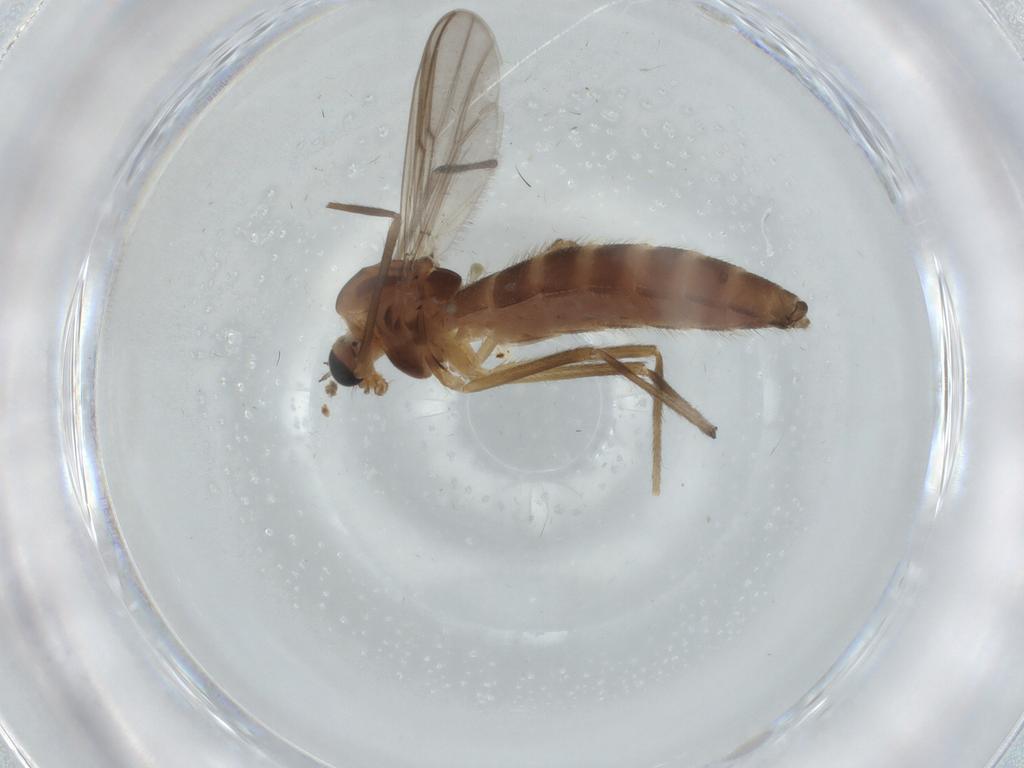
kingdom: Animalia
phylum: Arthropoda
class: Insecta
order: Diptera
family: Chironomidae
